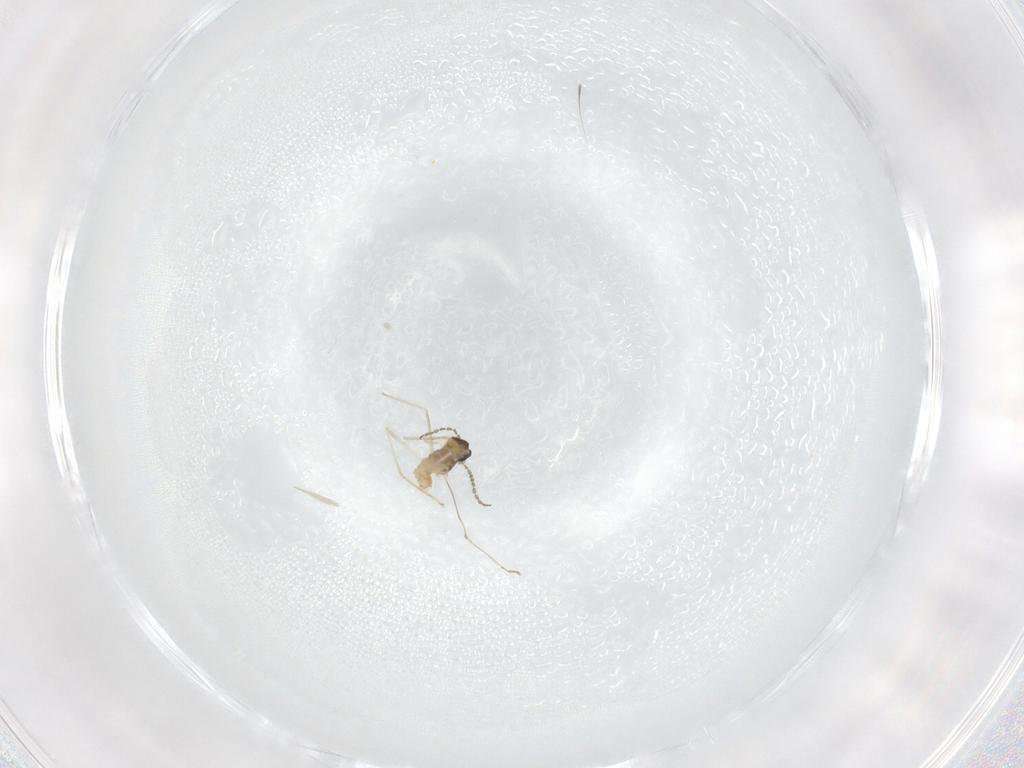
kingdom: Animalia
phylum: Arthropoda
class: Insecta
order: Diptera
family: Cecidomyiidae
